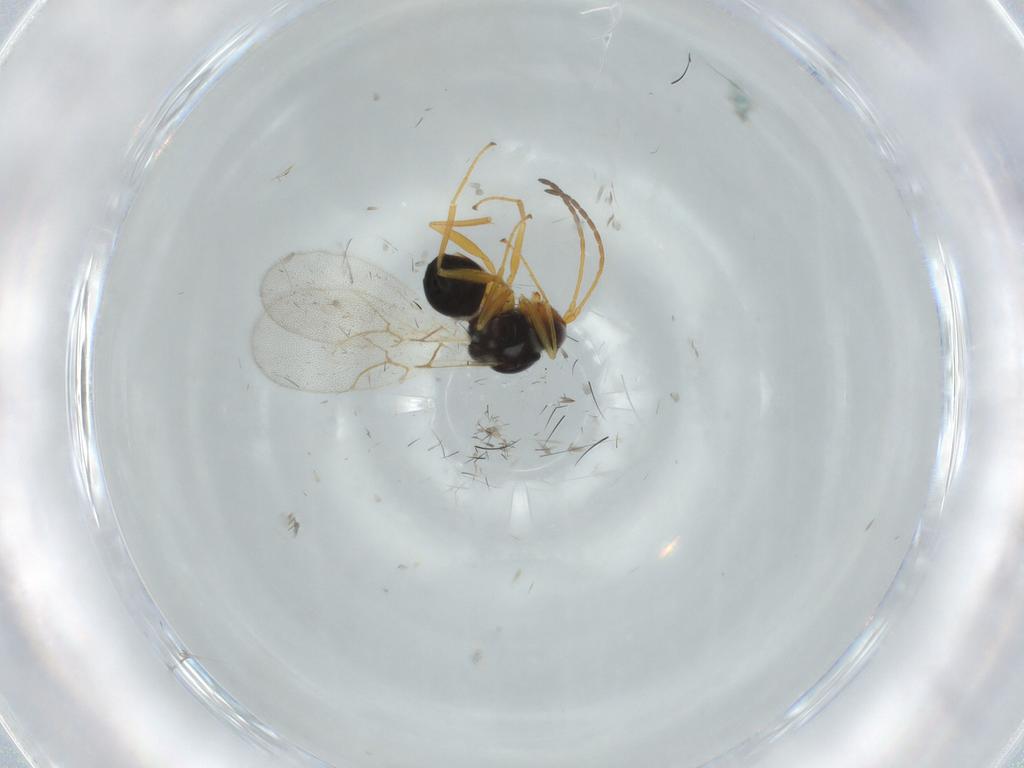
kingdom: Animalia
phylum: Arthropoda
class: Insecta
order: Hymenoptera
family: Figitidae
